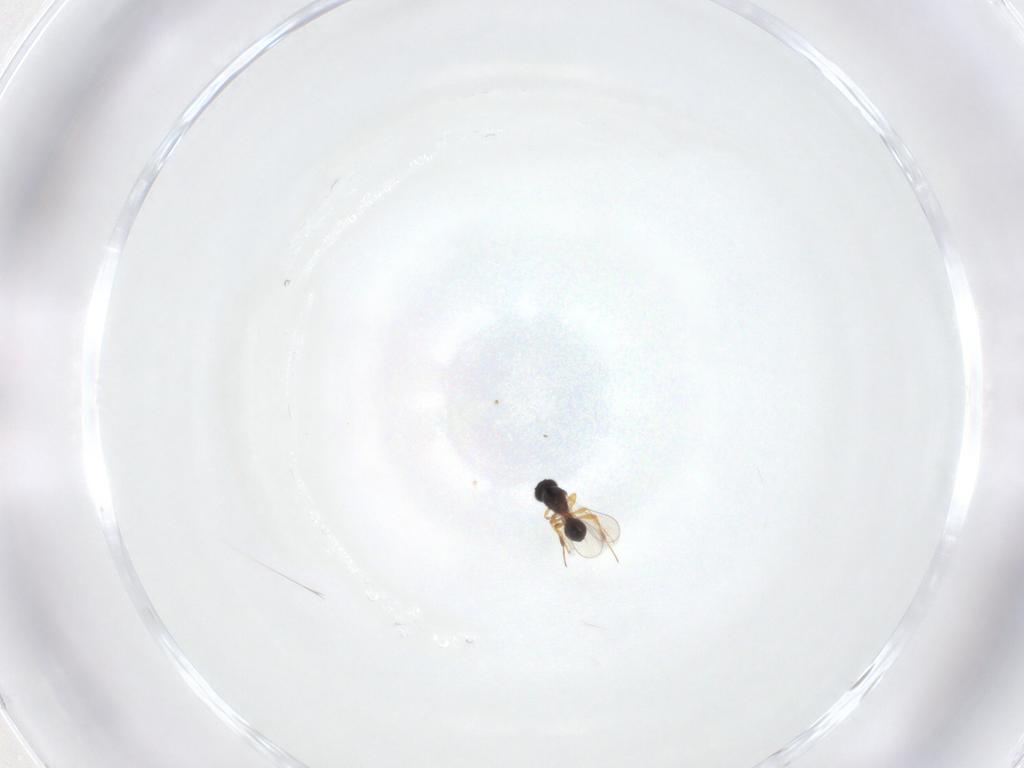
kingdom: Animalia
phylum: Arthropoda
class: Insecta
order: Hymenoptera
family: Platygastridae
